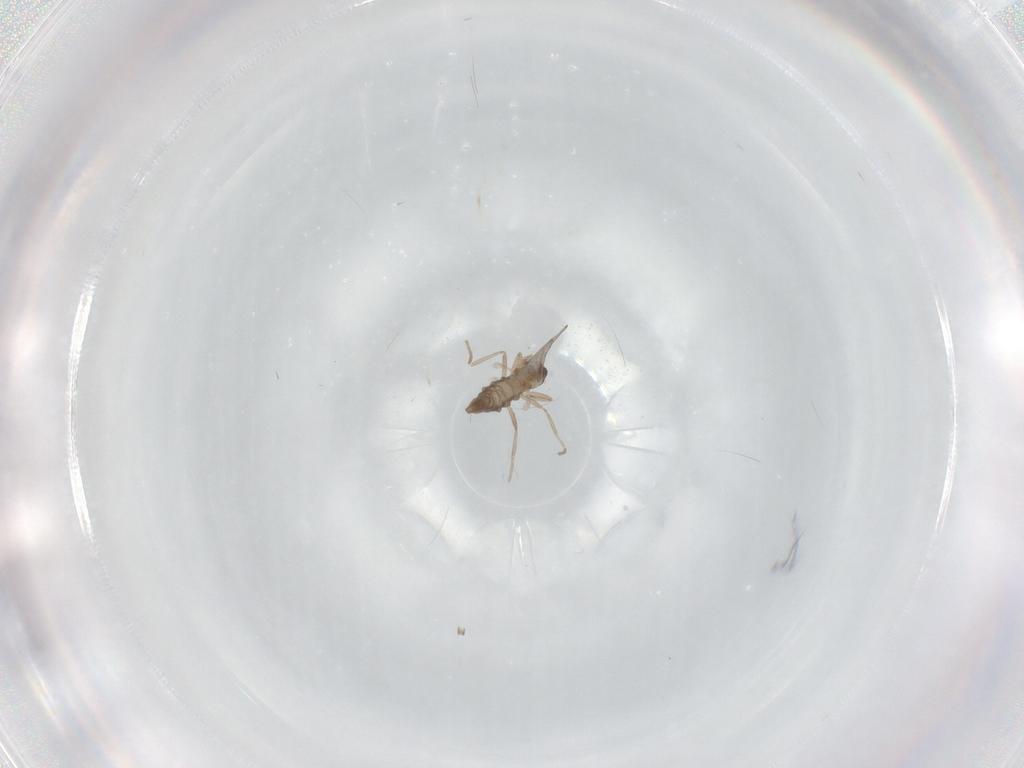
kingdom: Animalia
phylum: Arthropoda
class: Insecta
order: Diptera
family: Cecidomyiidae
